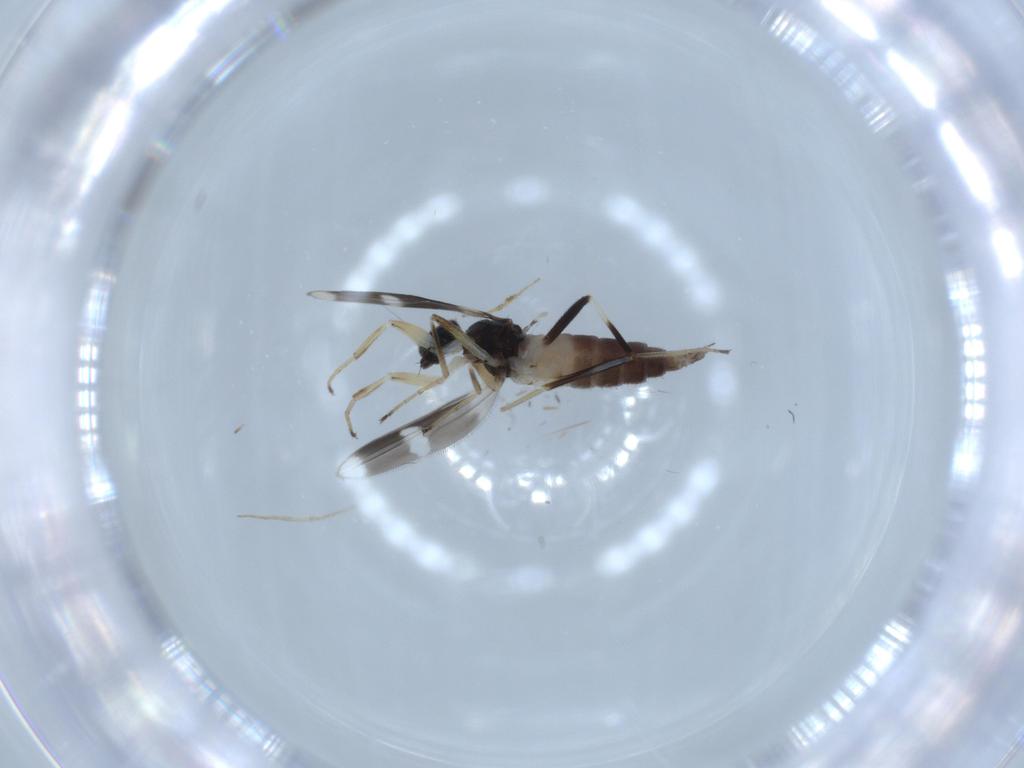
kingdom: Animalia
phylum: Arthropoda
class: Insecta
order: Diptera
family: Hybotidae
